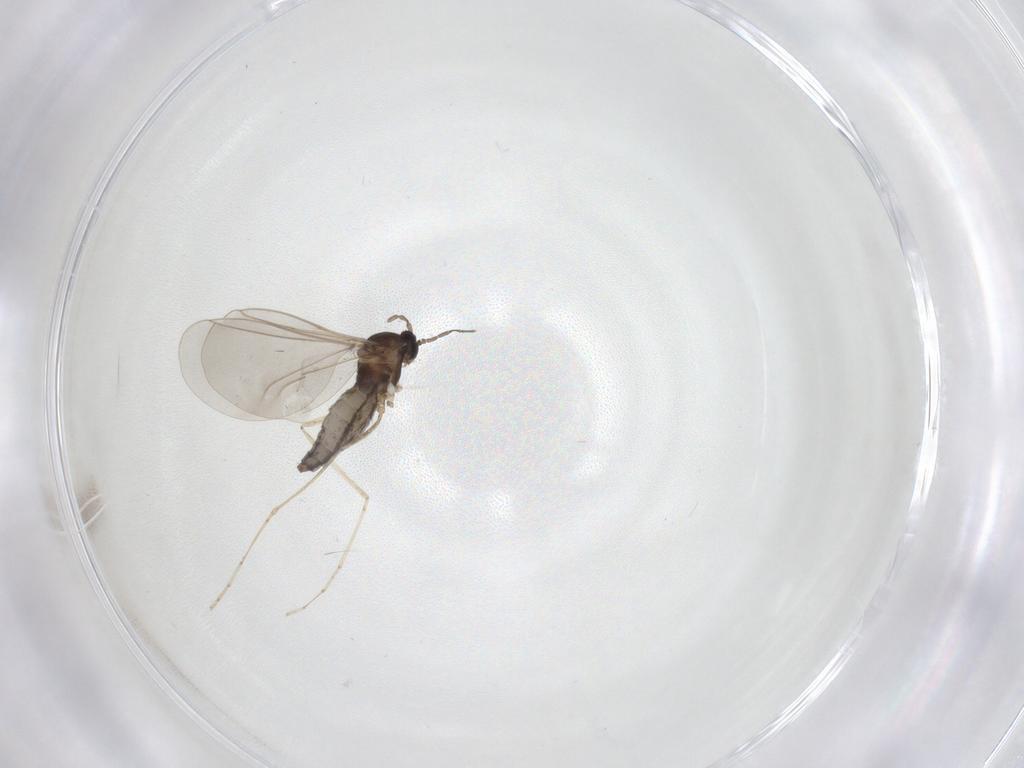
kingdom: Animalia
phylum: Arthropoda
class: Insecta
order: Diptera
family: Cecidomyiidae
